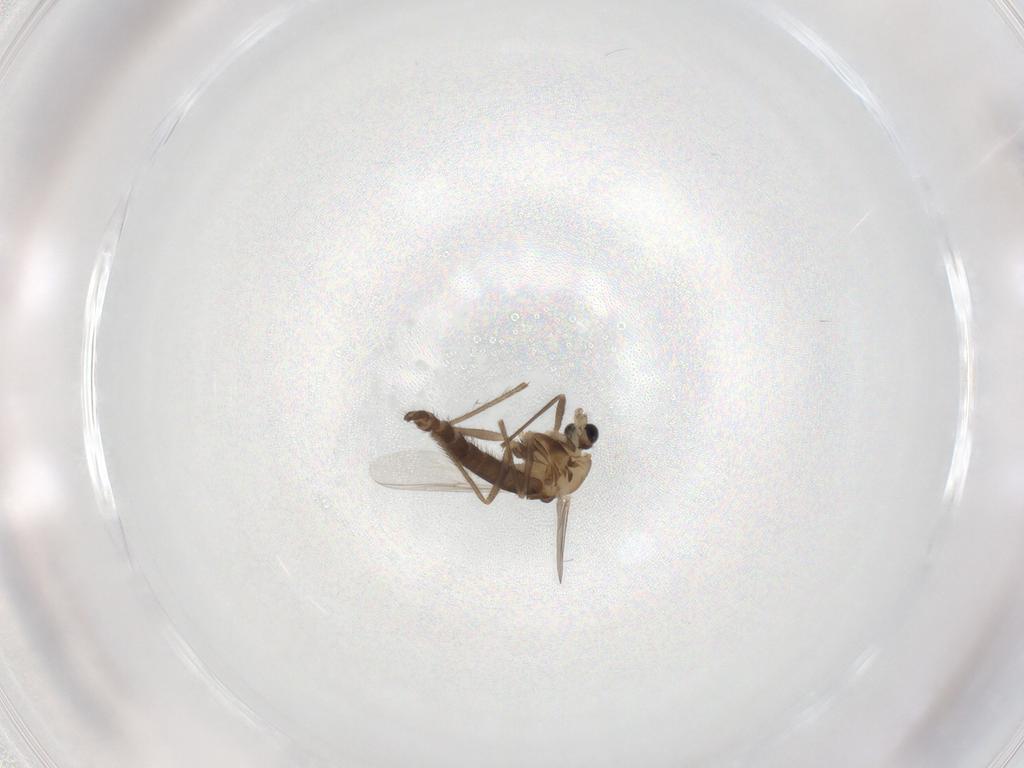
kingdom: Animalia
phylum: Arthropoda
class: Insecta
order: Diptera
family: Chironomidae
